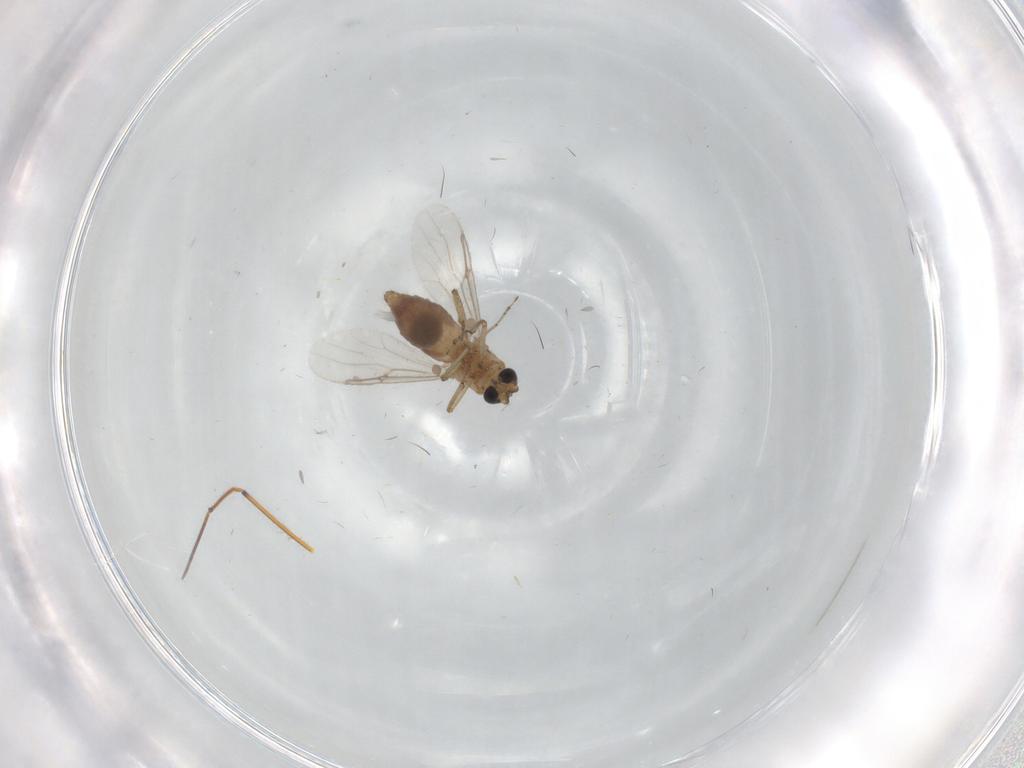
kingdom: Animalia
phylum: Arthropoda
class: Insecta
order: Diptera
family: Ceratopogonidae
